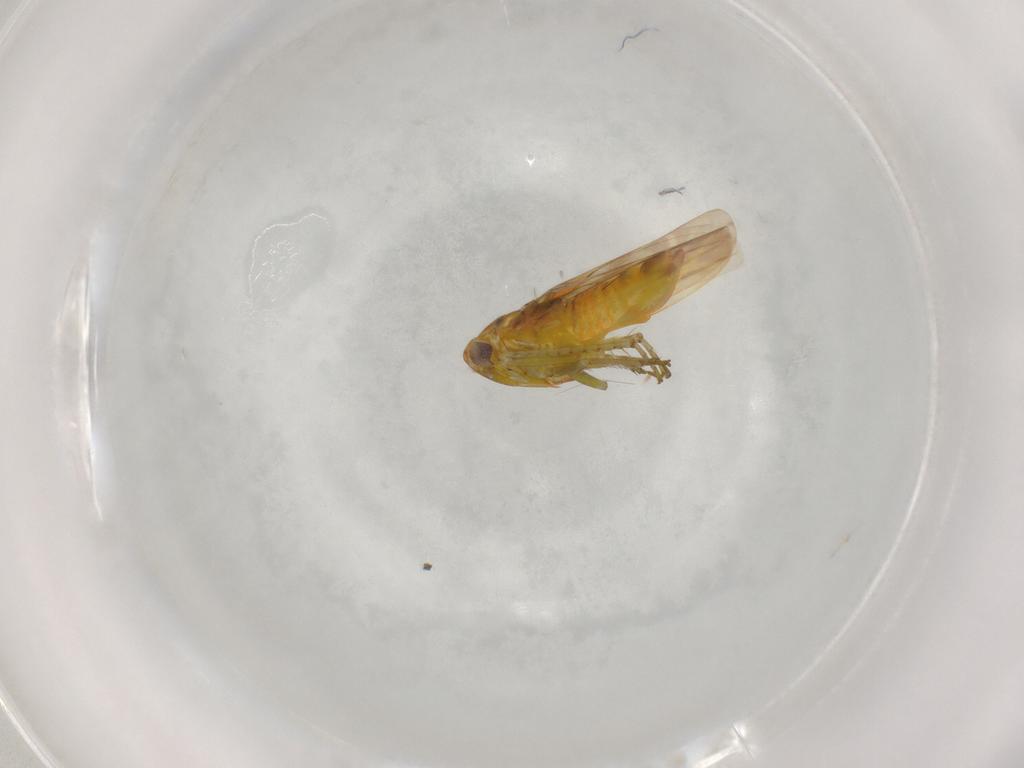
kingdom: Animalia
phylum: Arthropoda
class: Insecta
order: Hemiptera
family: Cicadellidae
